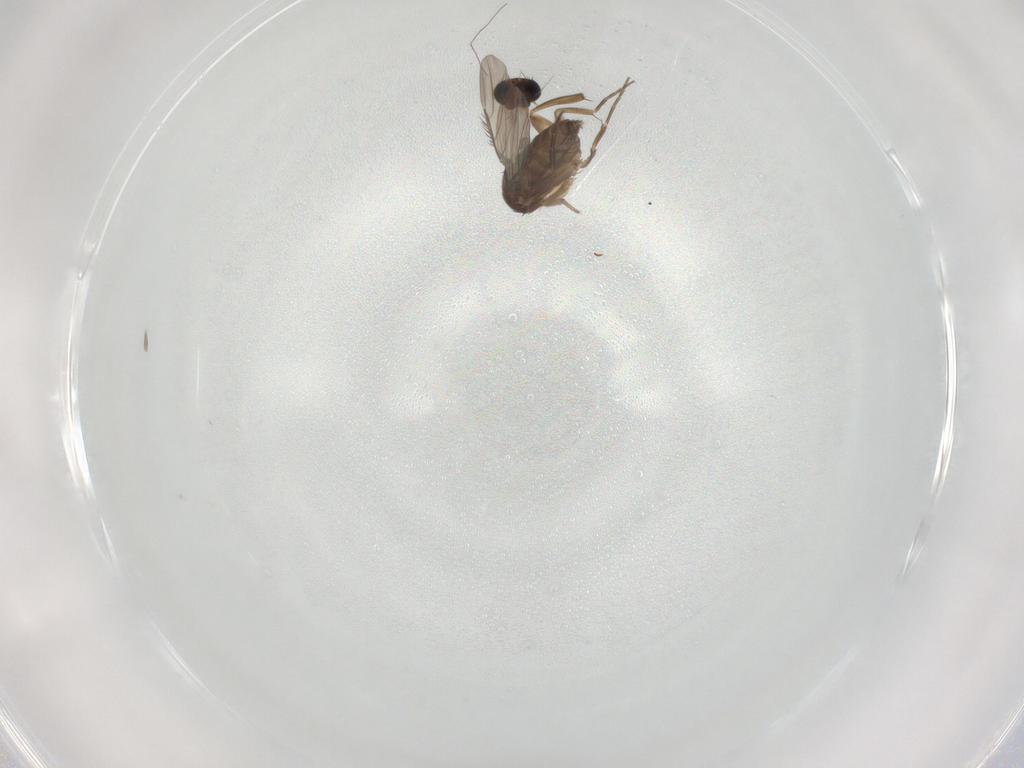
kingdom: Animalia
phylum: Arthropoda
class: Insecta
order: Diptera
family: Phoridae
